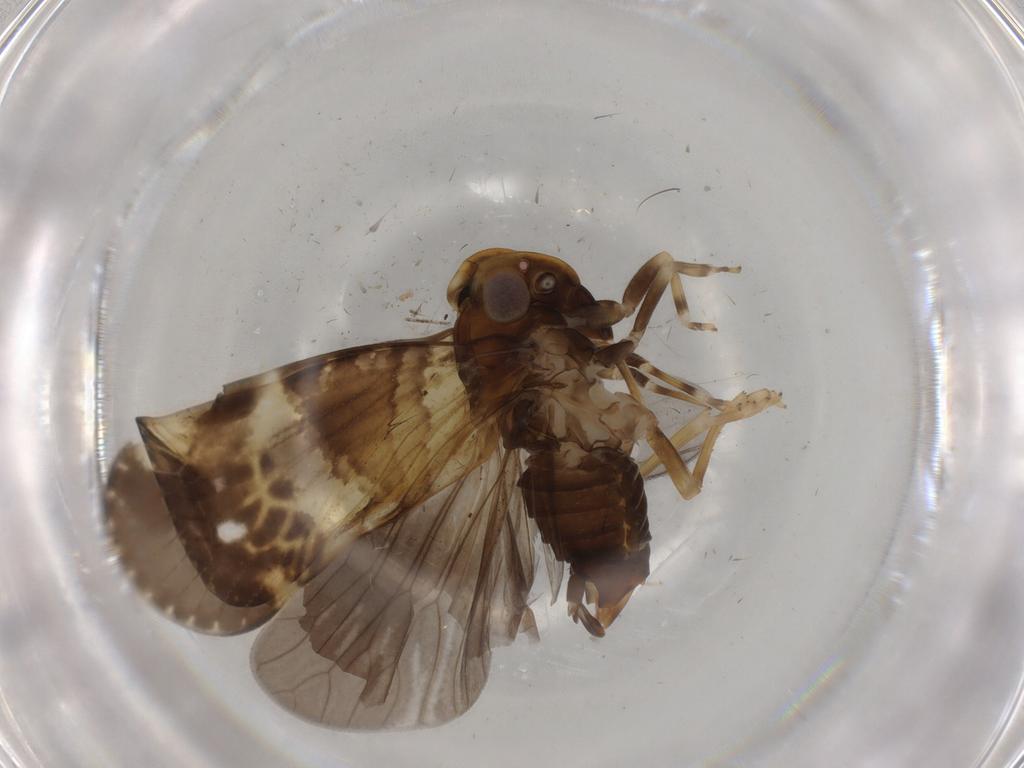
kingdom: Animalia
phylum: Arthropoda
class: Insecta
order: Hemiptera
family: Cixiidae
